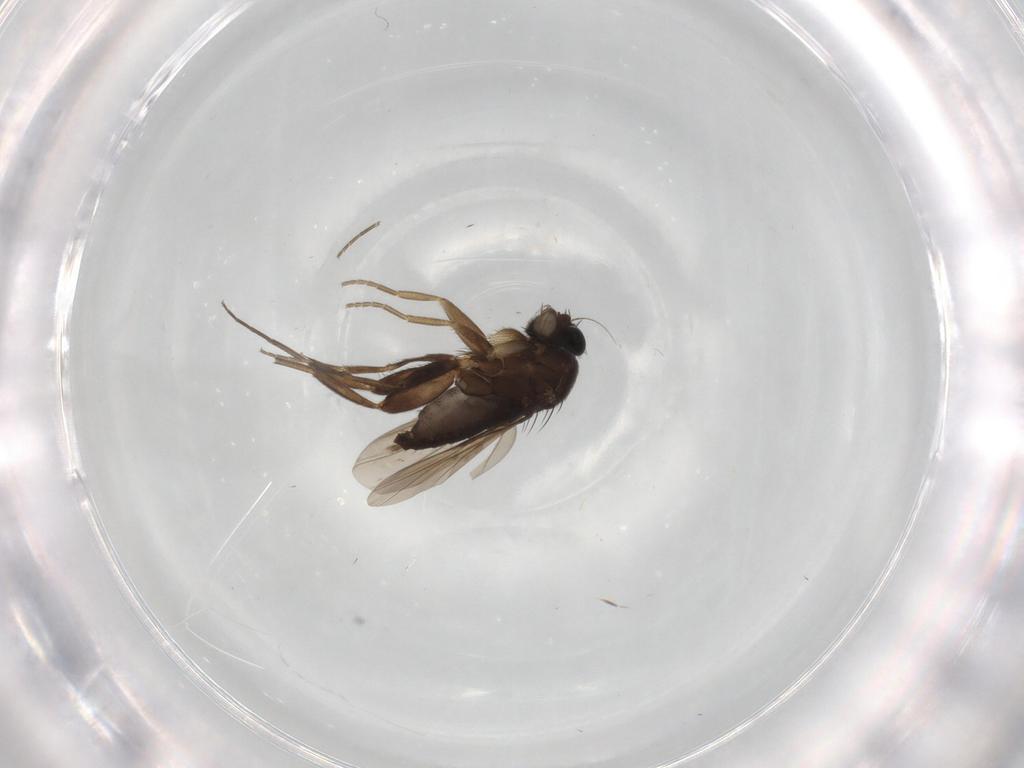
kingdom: Animalia
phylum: Arthropoda
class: Insecta
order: Diptera
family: Phoridae
